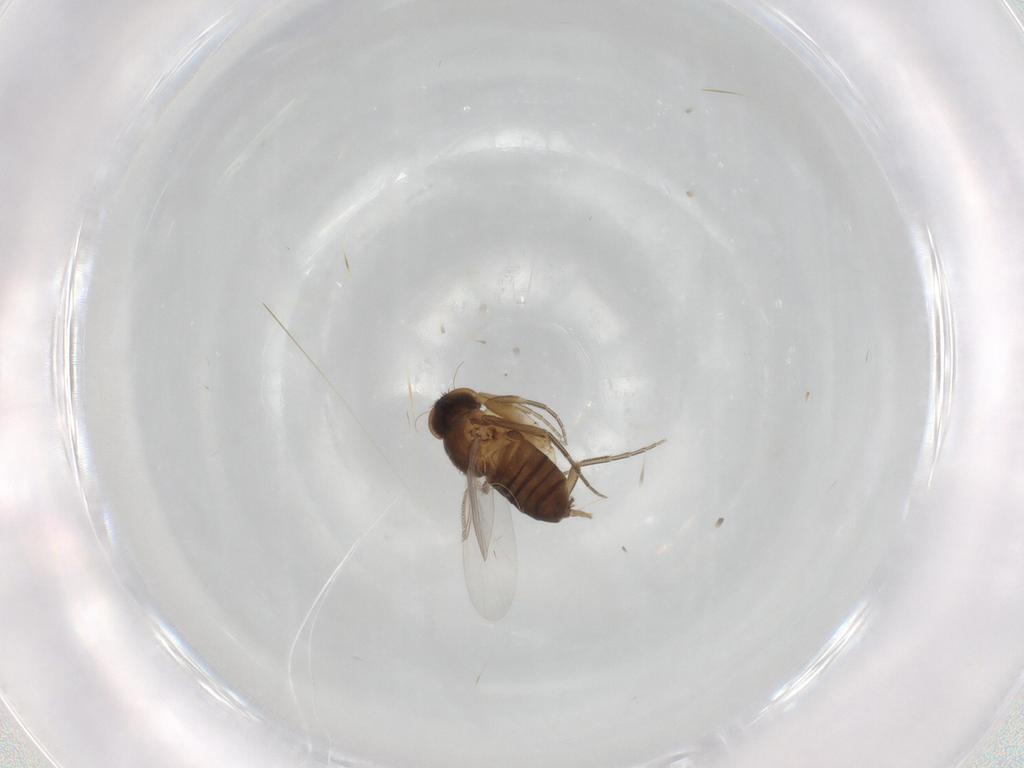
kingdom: Animalia
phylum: Arthropoda
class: Insecta
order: Diptera
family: Phoridae
